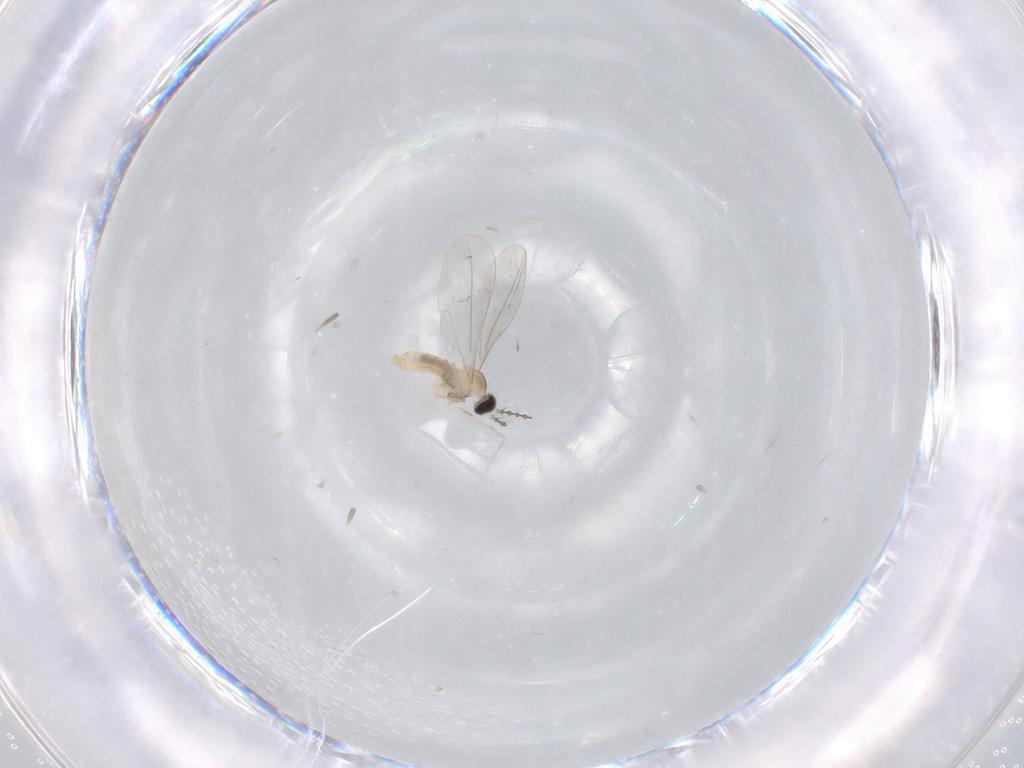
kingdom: Animalia
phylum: Arthropoda
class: Insecta
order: Diptera
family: Cecidomyiidae
